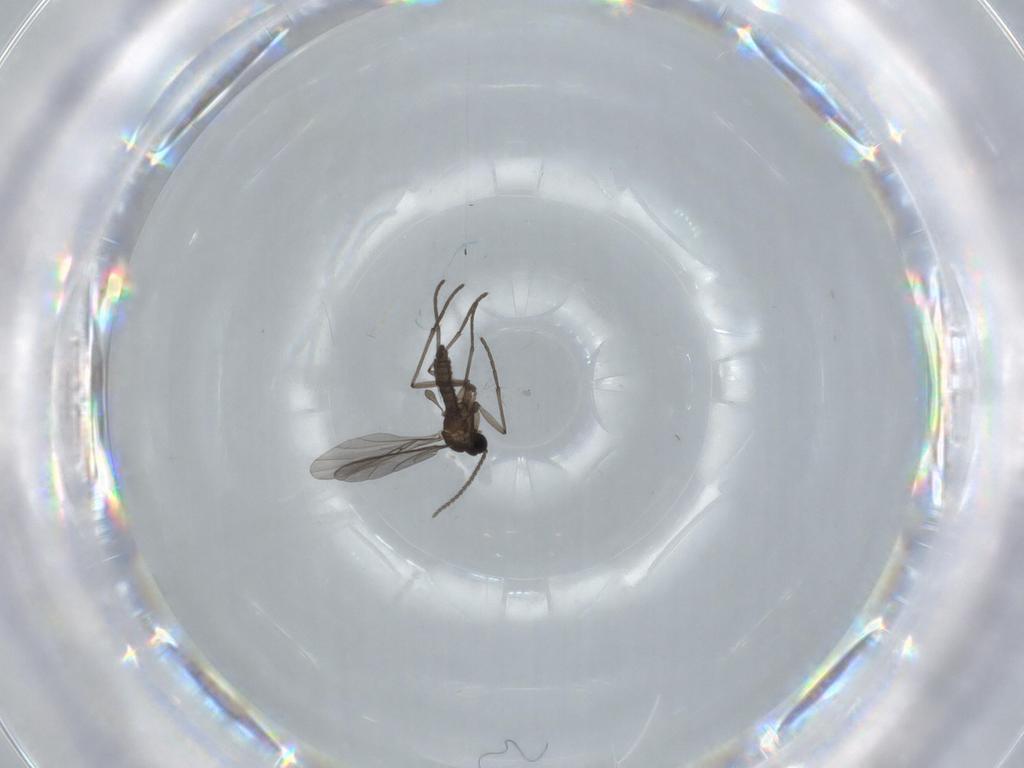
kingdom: Animalia
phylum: Arthropoda
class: Insecta
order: Diptera
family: Sciaridae
